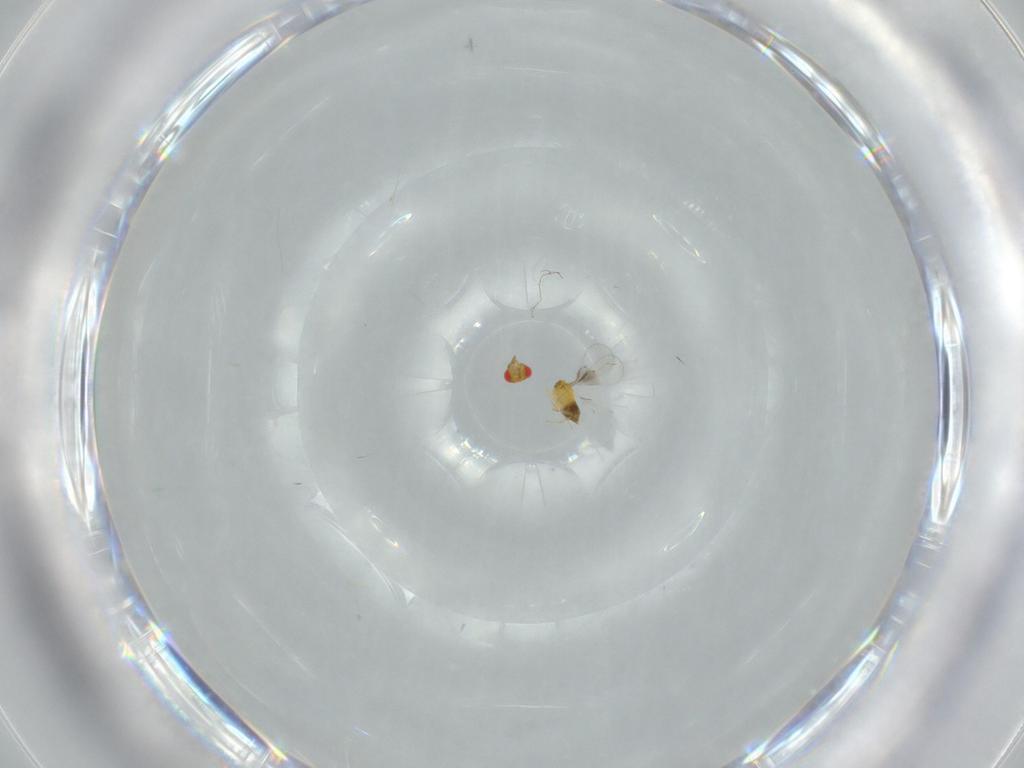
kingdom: Animalia
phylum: Arthropoda
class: Insecta
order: Hymenoptera
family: Trichogrammatidae
